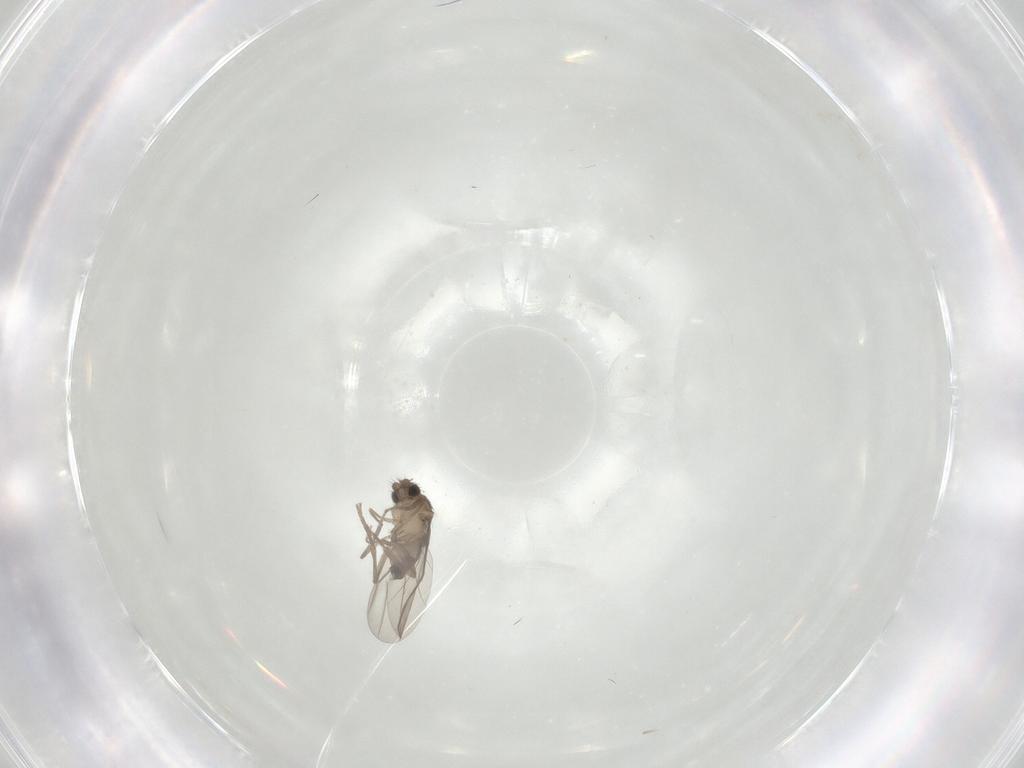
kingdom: Animalia
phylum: Arthropoda
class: Insecta
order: Diptera
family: Phoridae
